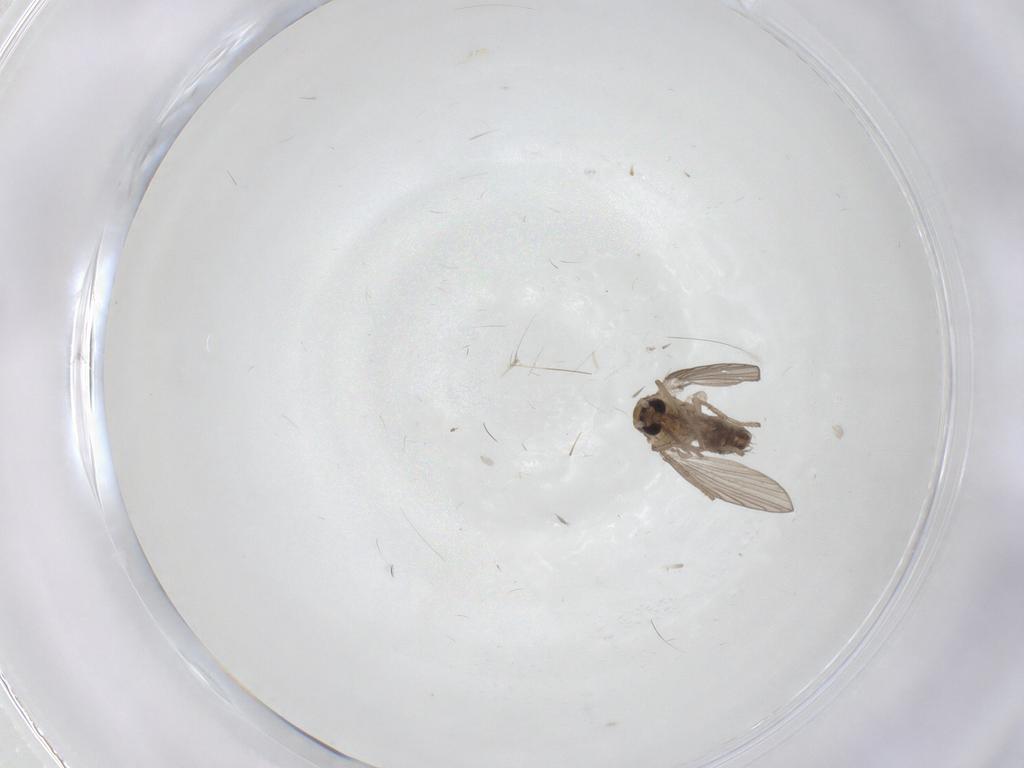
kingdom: Animalia
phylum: Arthropoda
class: Insecta
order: Diptera
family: Psychodidae
